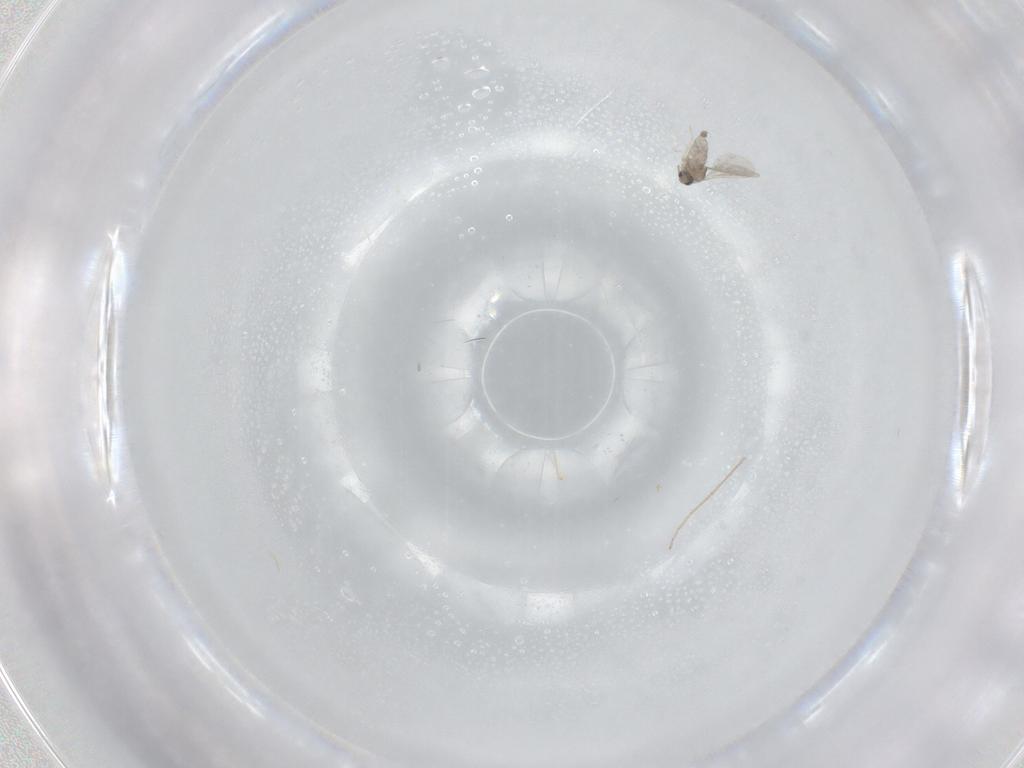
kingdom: Animalia
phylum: Arthropoda
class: Insecta
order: Diptera
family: Cecidomyiidae
